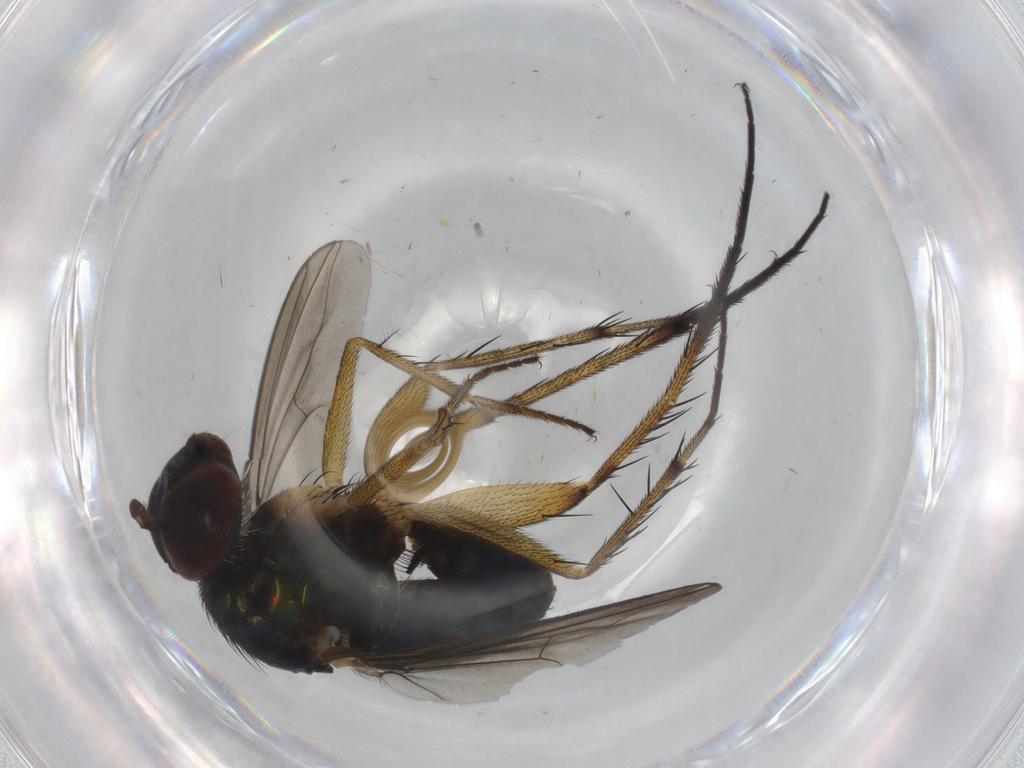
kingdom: Animalia
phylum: Arthropoda
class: Insecta
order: Diptera
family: Dolichopodidae
